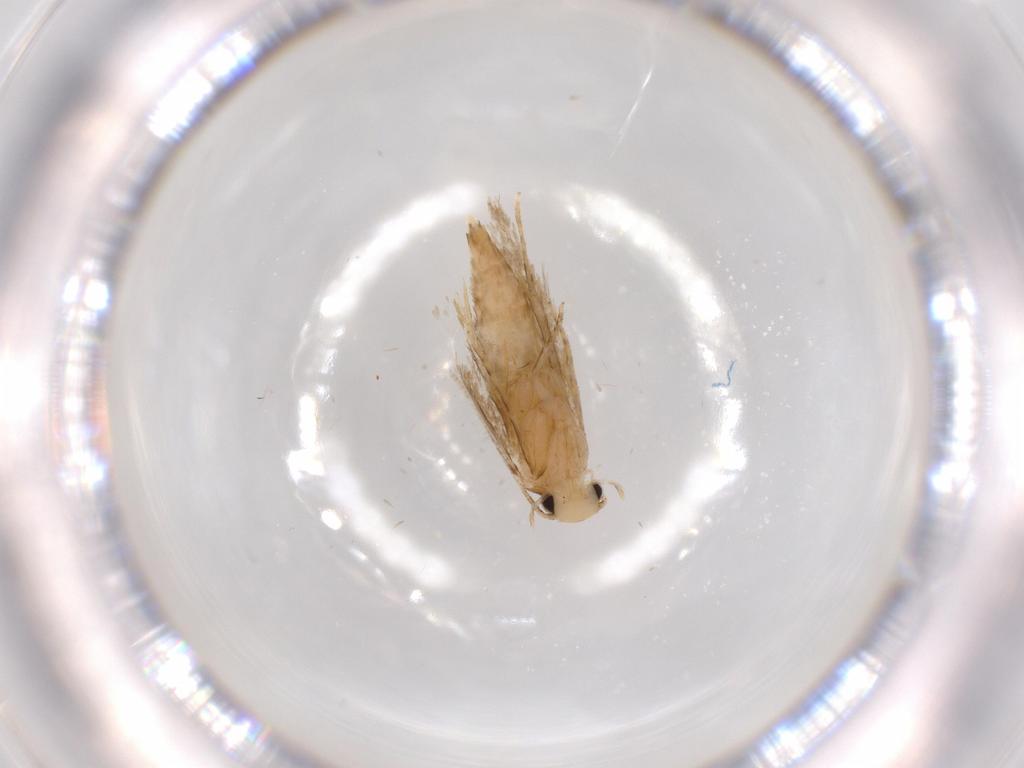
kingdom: Animalia
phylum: Arthropoda
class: Insecta
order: Lepidoptera
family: Tineidae
